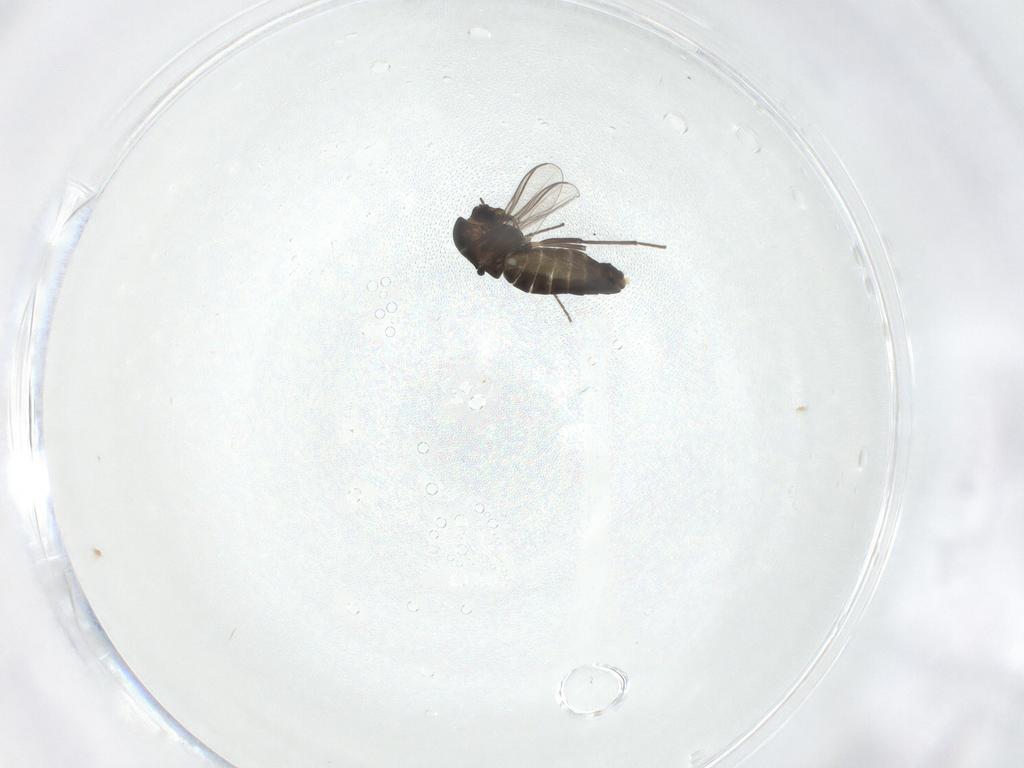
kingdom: Animalia
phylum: Arthropoda
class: Insecta
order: Diptera
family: Chironomidae
